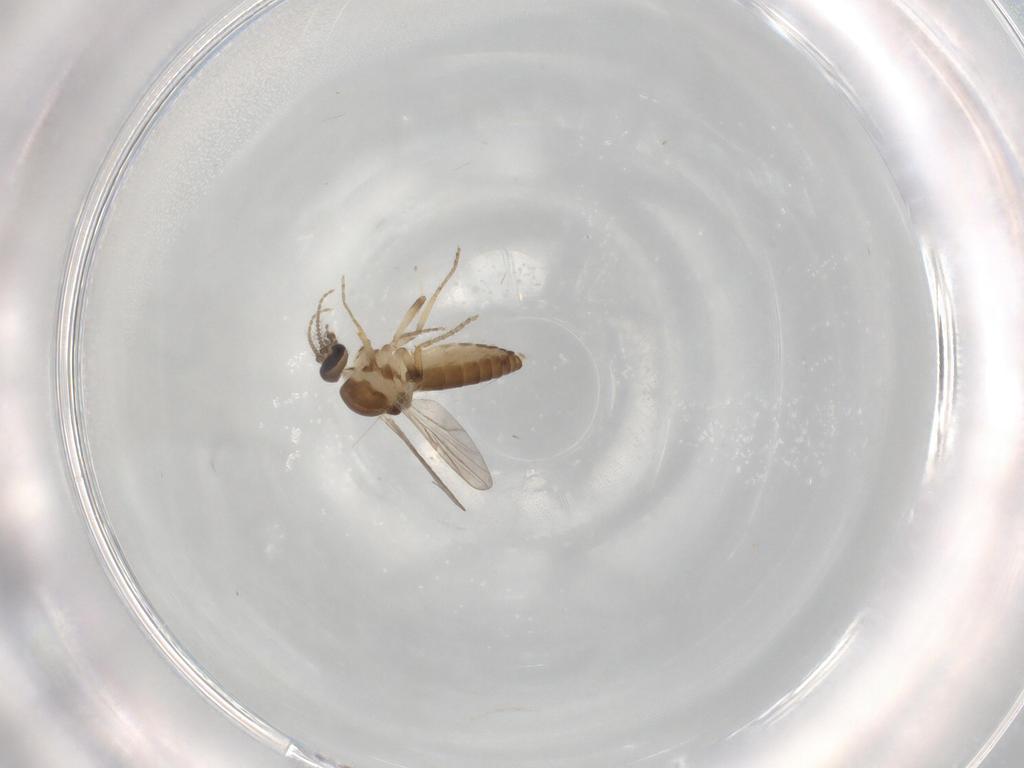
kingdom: Animalia
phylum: Arthropoda
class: Insecta
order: Diptera
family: Ceratopogonidae
